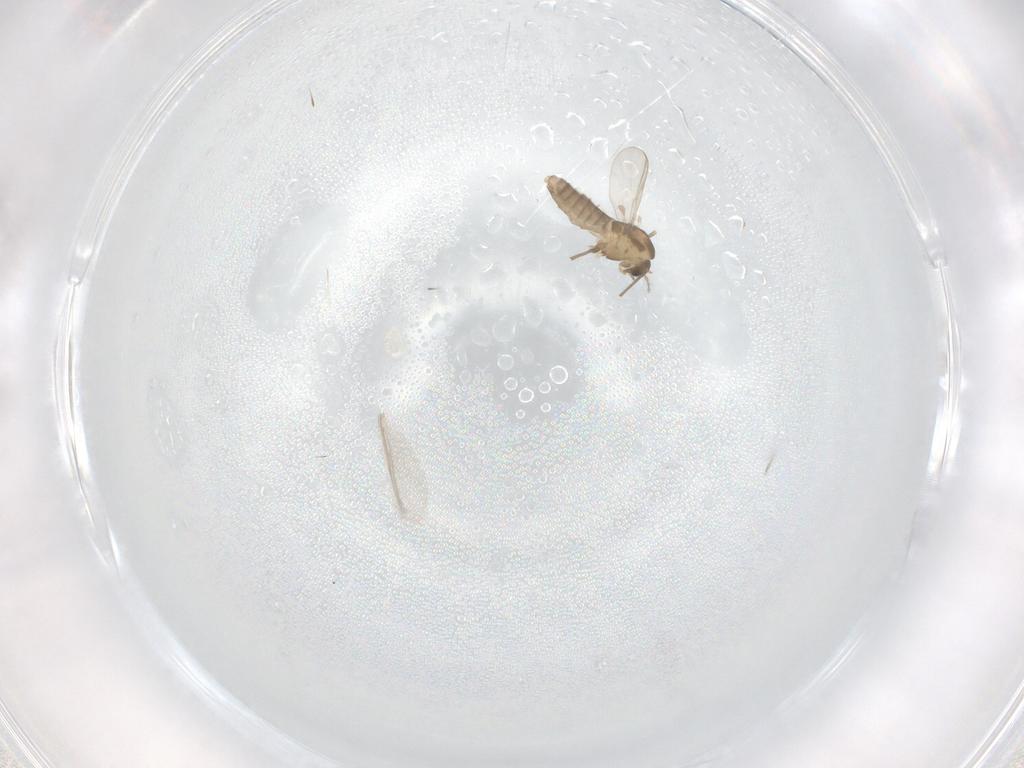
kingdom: Animalia
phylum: Arthropoda
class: Insecta
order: Diptera
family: Chironomidae
